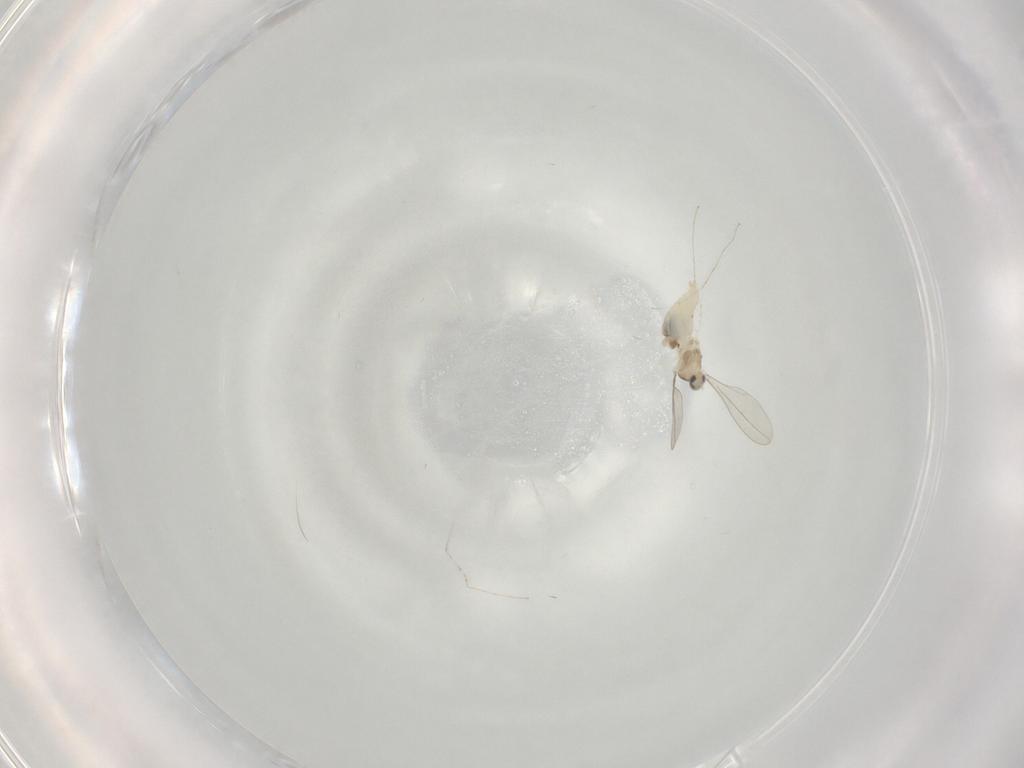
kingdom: Animalia
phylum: Arthropoda
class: Insecta
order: Diptera
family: Cecidomyiidae
